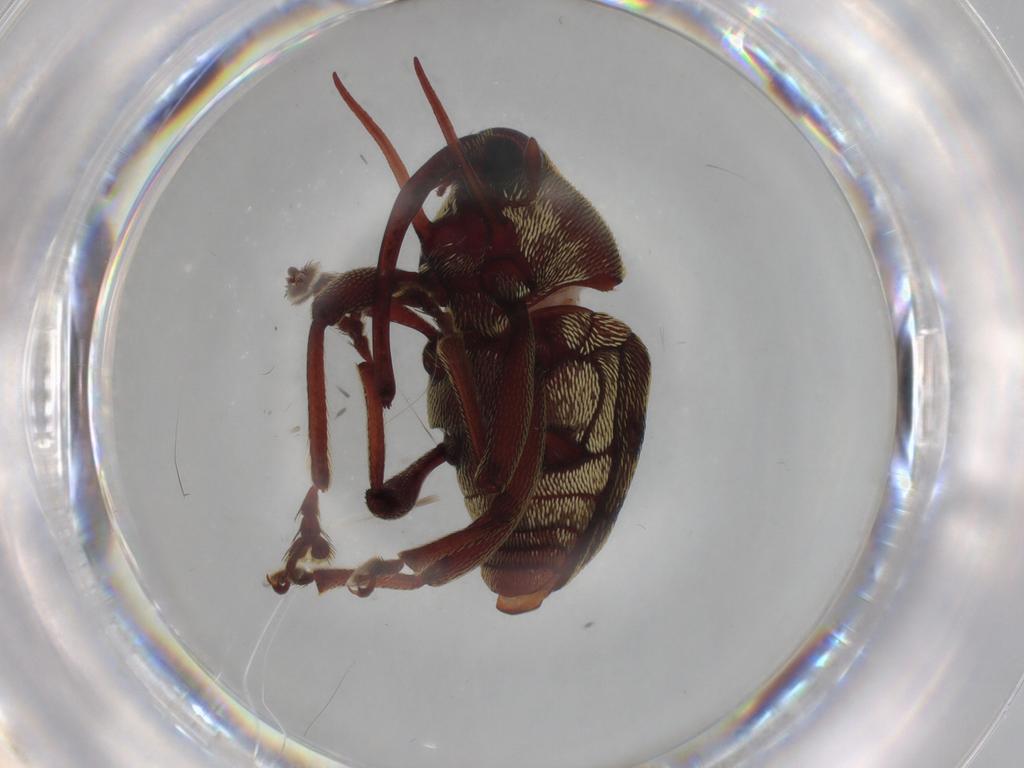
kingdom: Animalia
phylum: Arthropoda
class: Insecta
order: Coleoptera
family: Curculionidae
